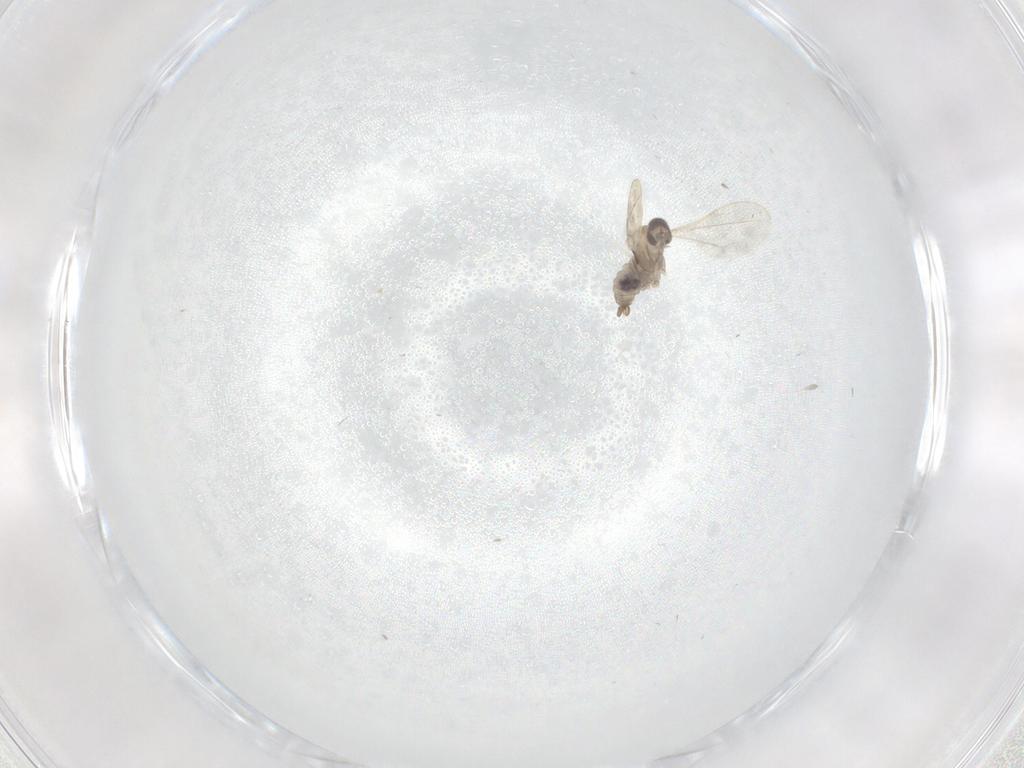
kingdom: Animalia
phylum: Arthropoda
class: Insecta
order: Diptera
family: Cecidomyiidae
